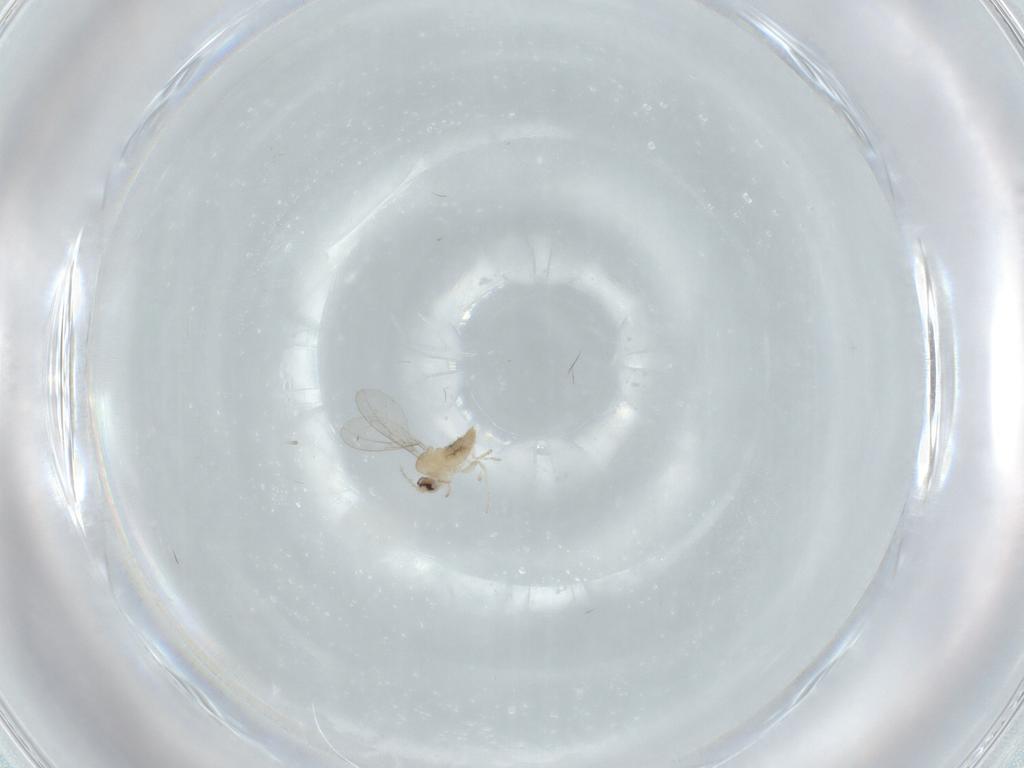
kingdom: Animalia
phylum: Arthropoda
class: Insecta
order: Diptera
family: Cecidomyiidae
